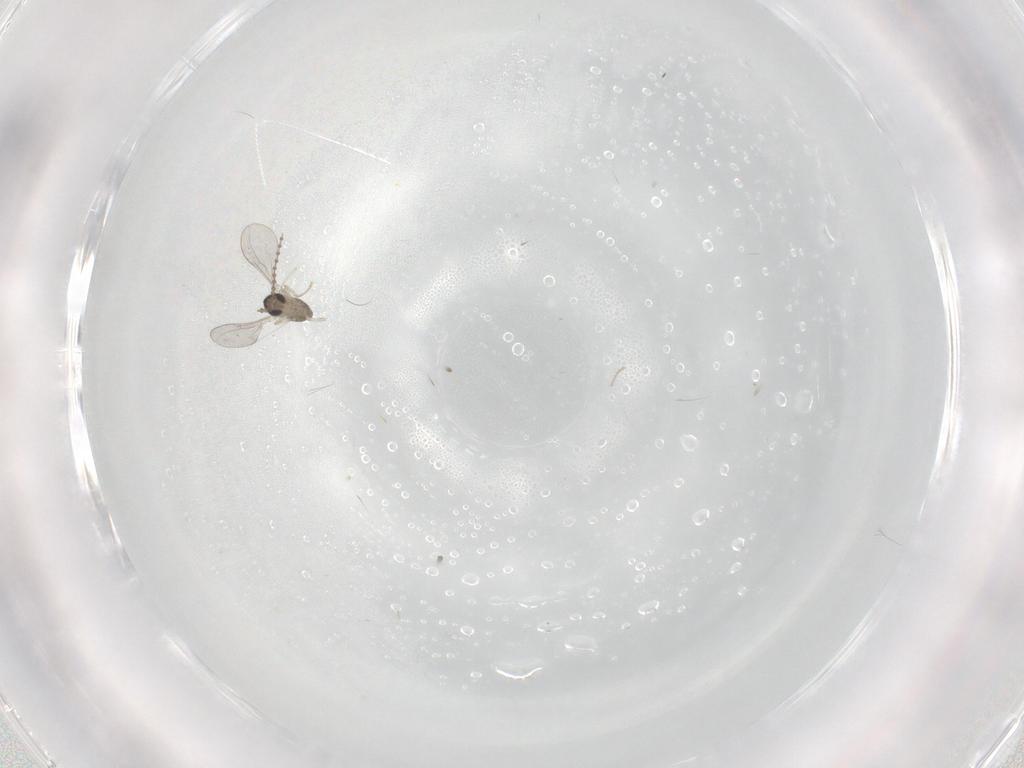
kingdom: Animalia
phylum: Arthropoda
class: Insecta
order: Diptera
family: Cecidomyiidae
